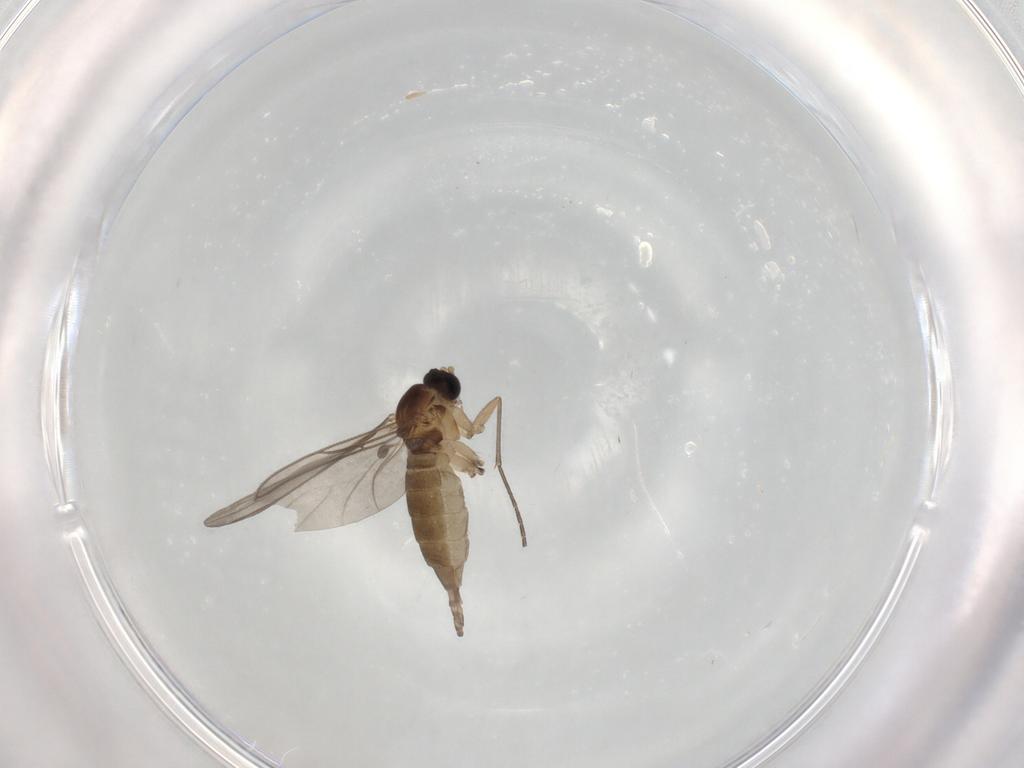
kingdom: Animalia
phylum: Arthropoda
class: Insecta
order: Diptera
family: Sciaridae
